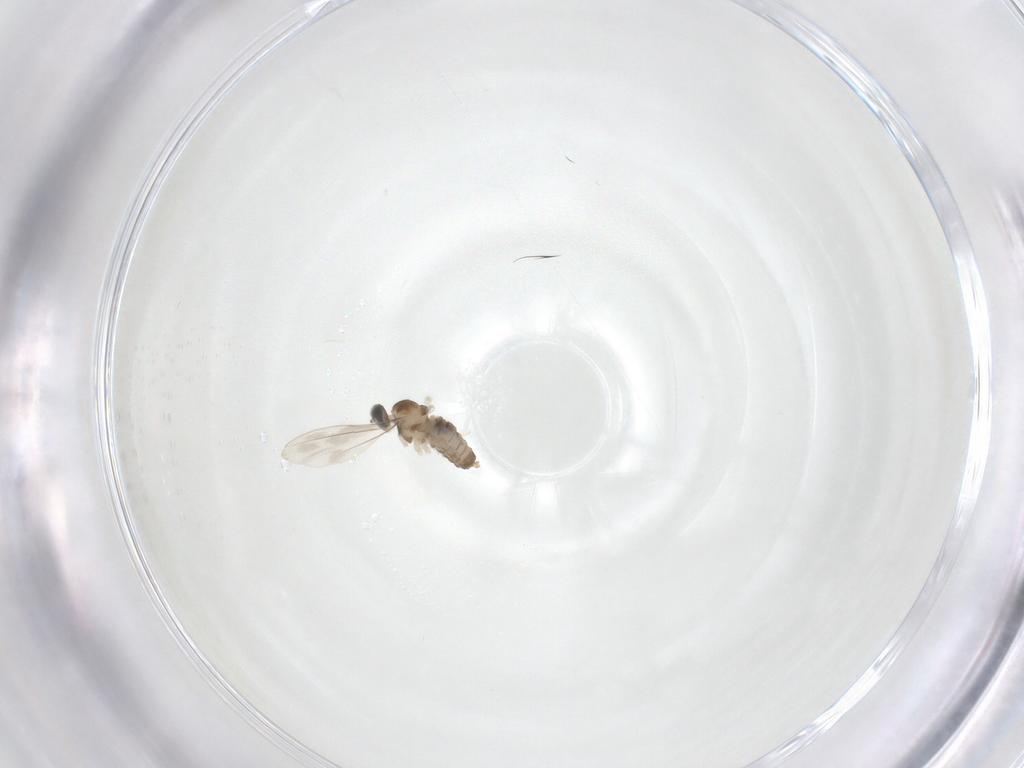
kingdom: Animalia
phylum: Arthropoda
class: Insecta
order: Diptera
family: Cecidomyiidae
